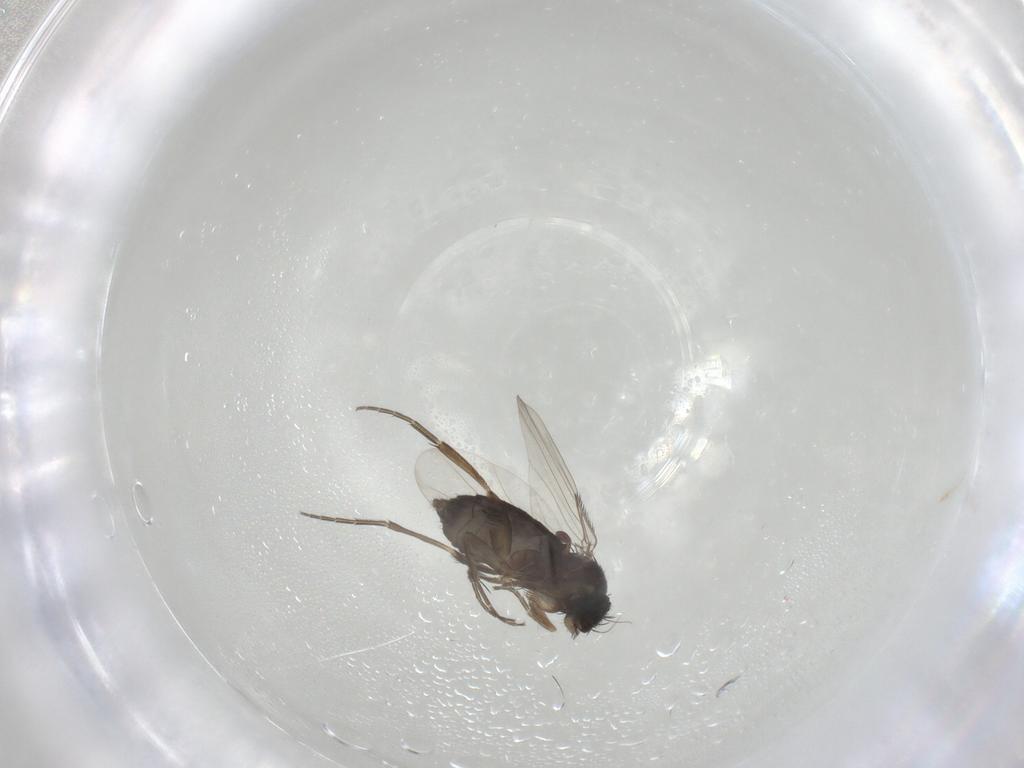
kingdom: Animalia
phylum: Arthropoda
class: Insecta
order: Diptera
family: Phoridae
